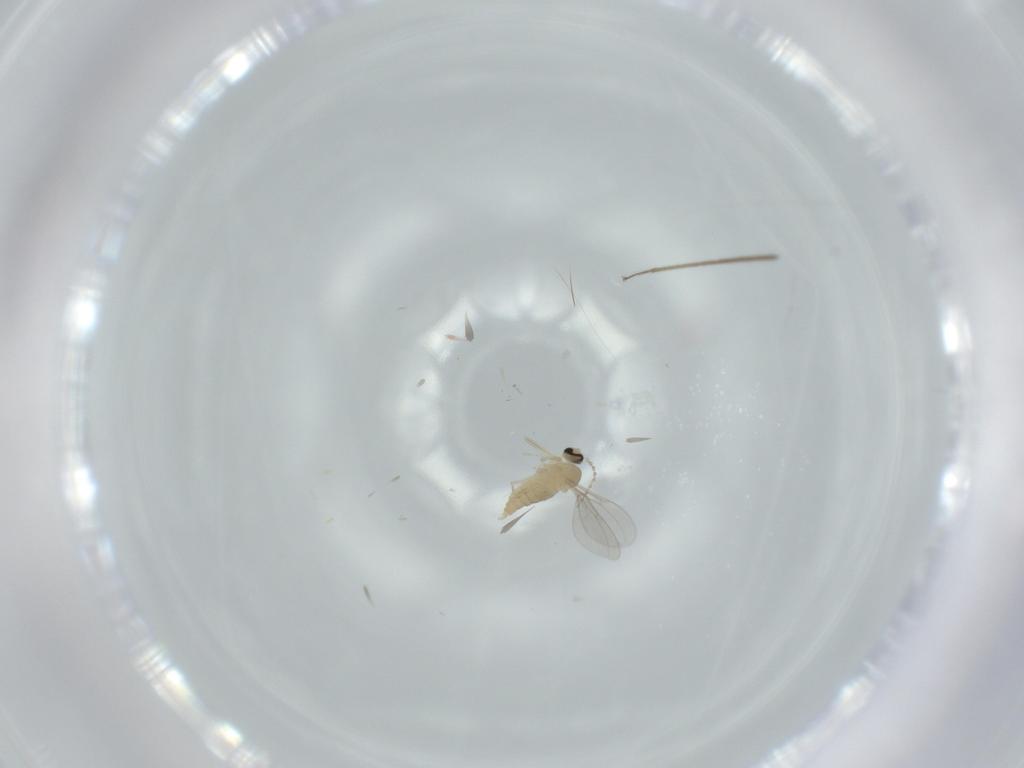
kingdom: Animalia
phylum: Arthropoda
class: Insecta
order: Diptera
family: Cecidomyiidae
